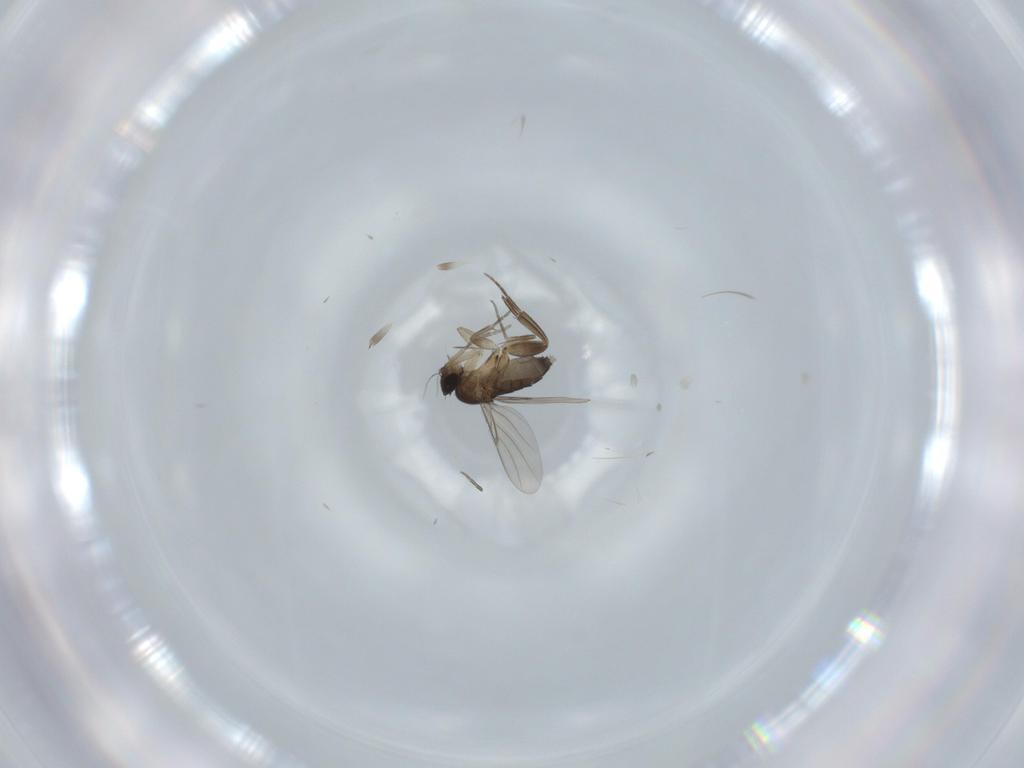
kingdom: Animalia
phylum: Arthropoda
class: Insecta
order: Diptera
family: Phoridae
